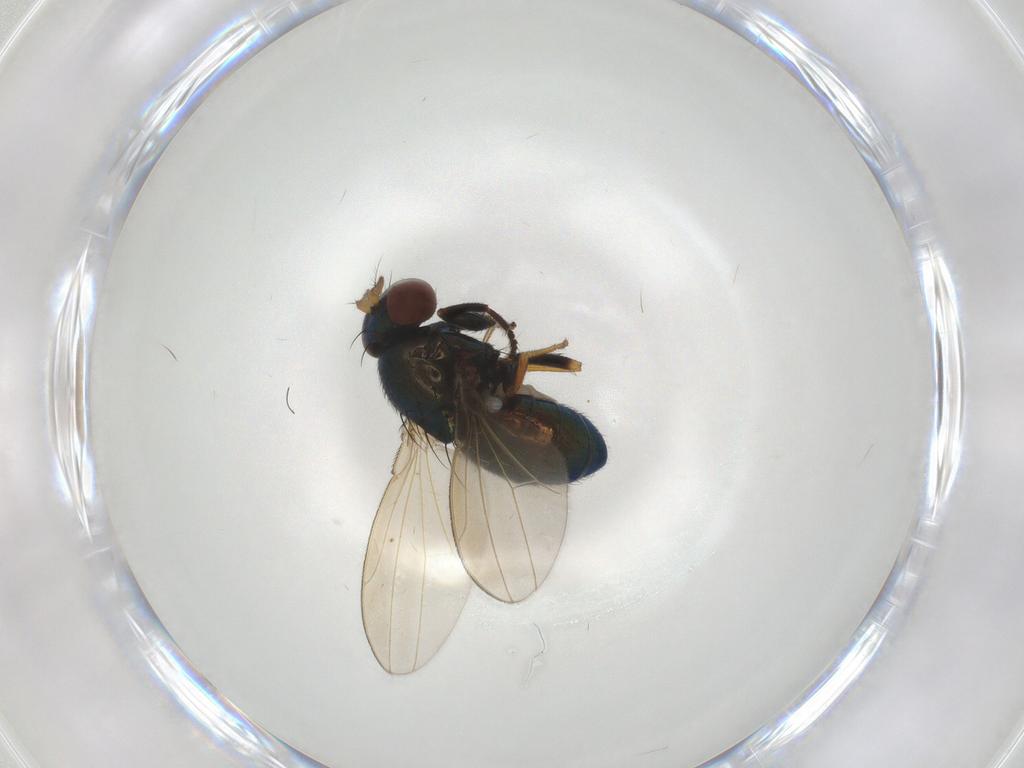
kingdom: Animalia
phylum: Arthropoda
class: Insecta
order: Diptera
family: Ephydridae
